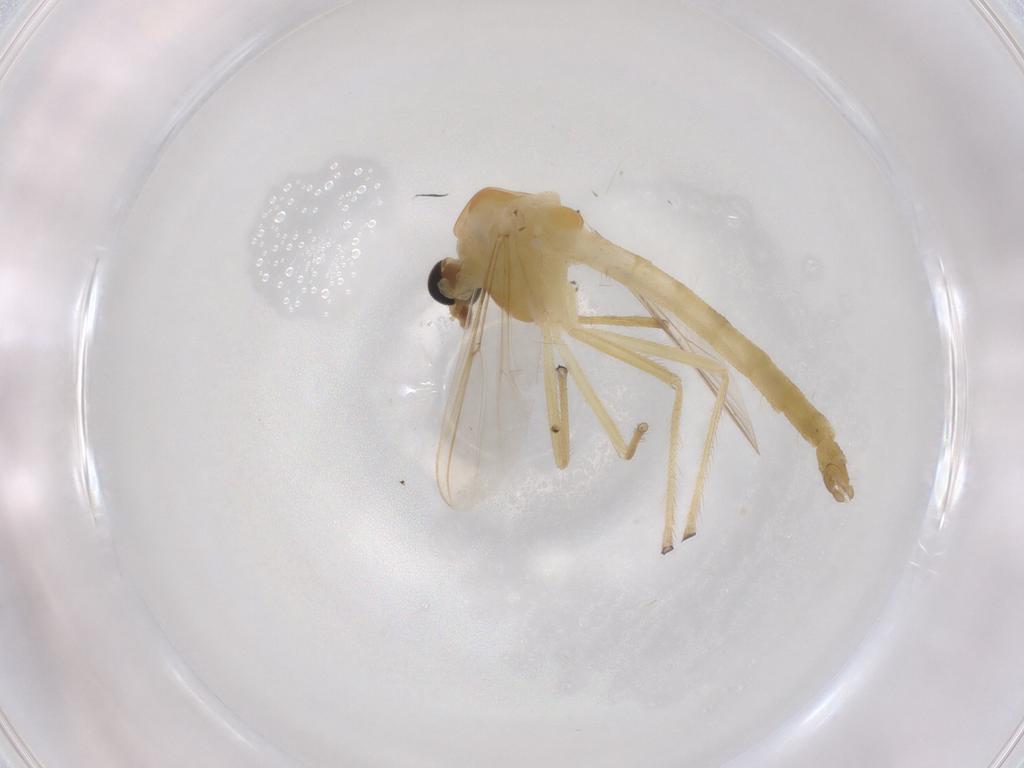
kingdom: Animalia
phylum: Arthropoda
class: Insecta
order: Diptera
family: Chironomidae
